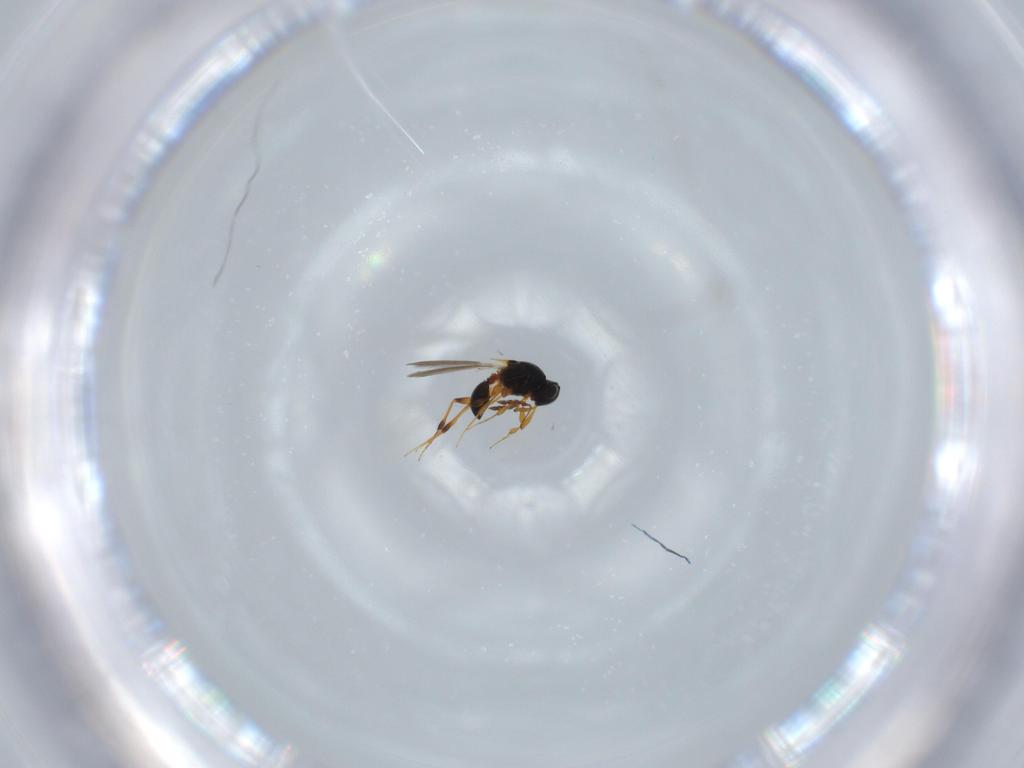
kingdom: Animalia
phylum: Arthropoda
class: Insecta
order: Hymenoptera
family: Scelionidae
